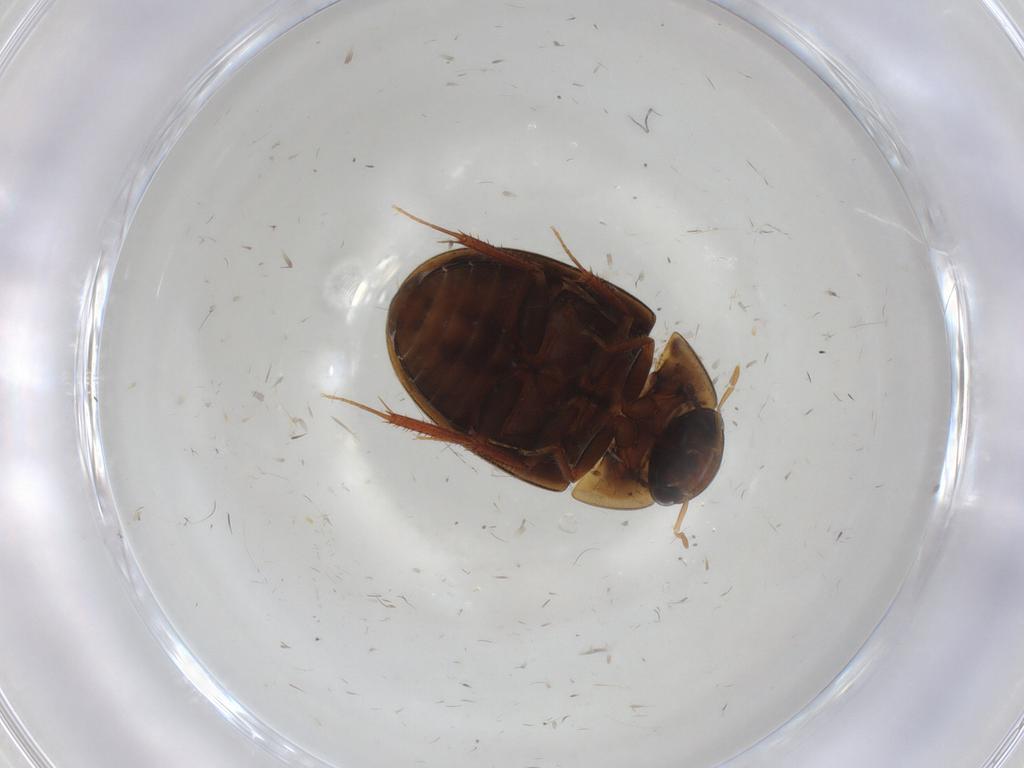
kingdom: Animalia
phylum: Arthropoda
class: Insecta
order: Coleoptera
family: Hydrophilidae
